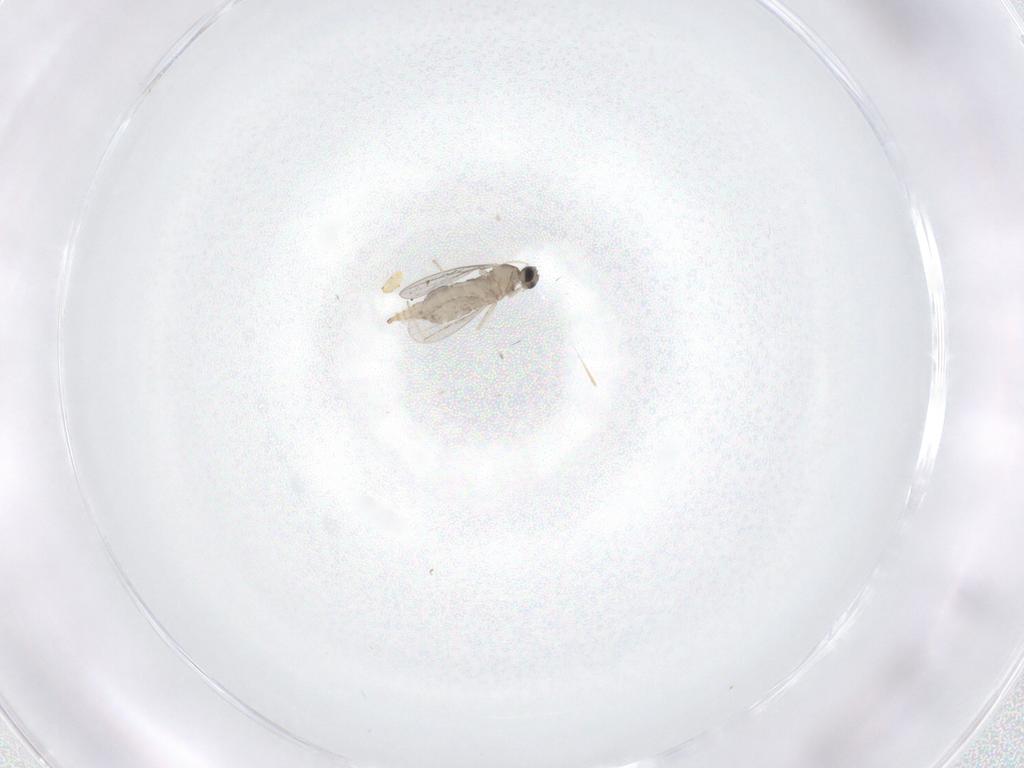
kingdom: Animalia
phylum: Arthropoda
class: Insecta
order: Diptera
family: Cecidomyiidae
